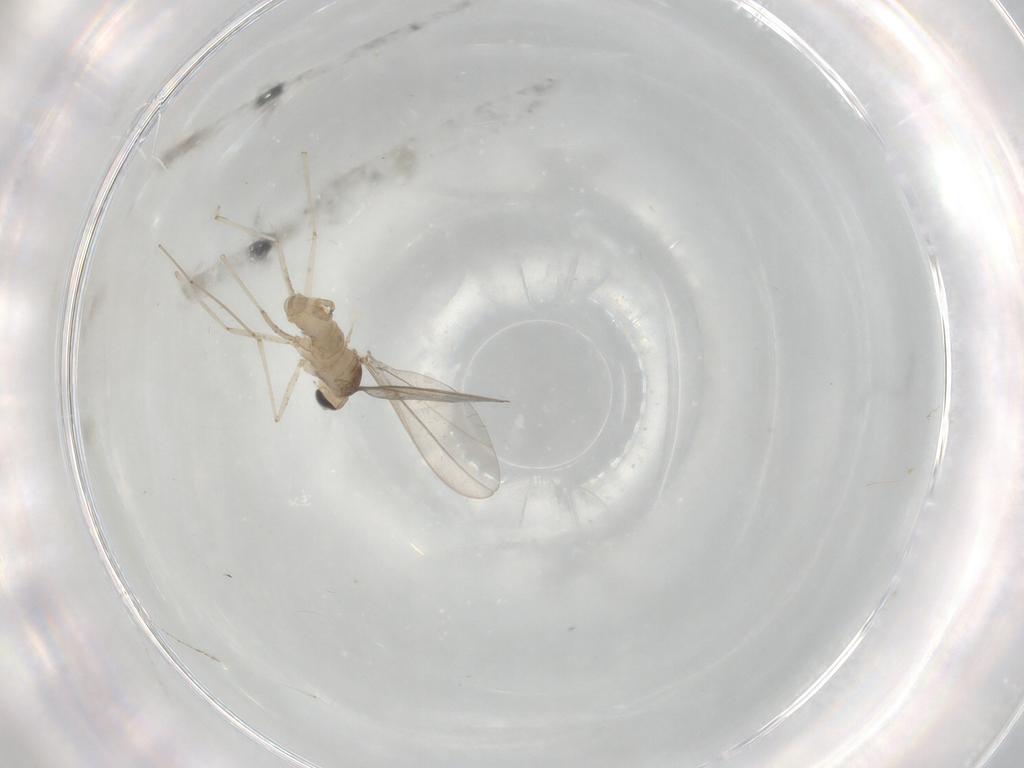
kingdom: Animalia
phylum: Arthropoda
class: Insecta
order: Diptera
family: Cecidomyiidae
